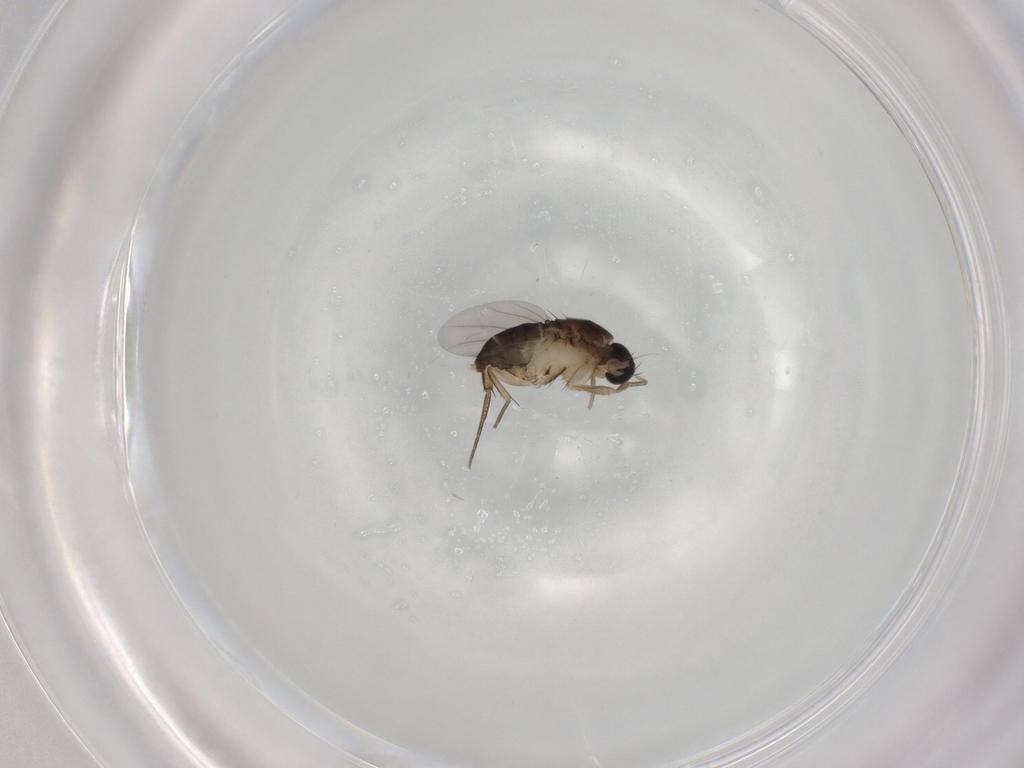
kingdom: Animalia
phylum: Arthropoda
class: Insecta
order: Diptera
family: Phoridae
